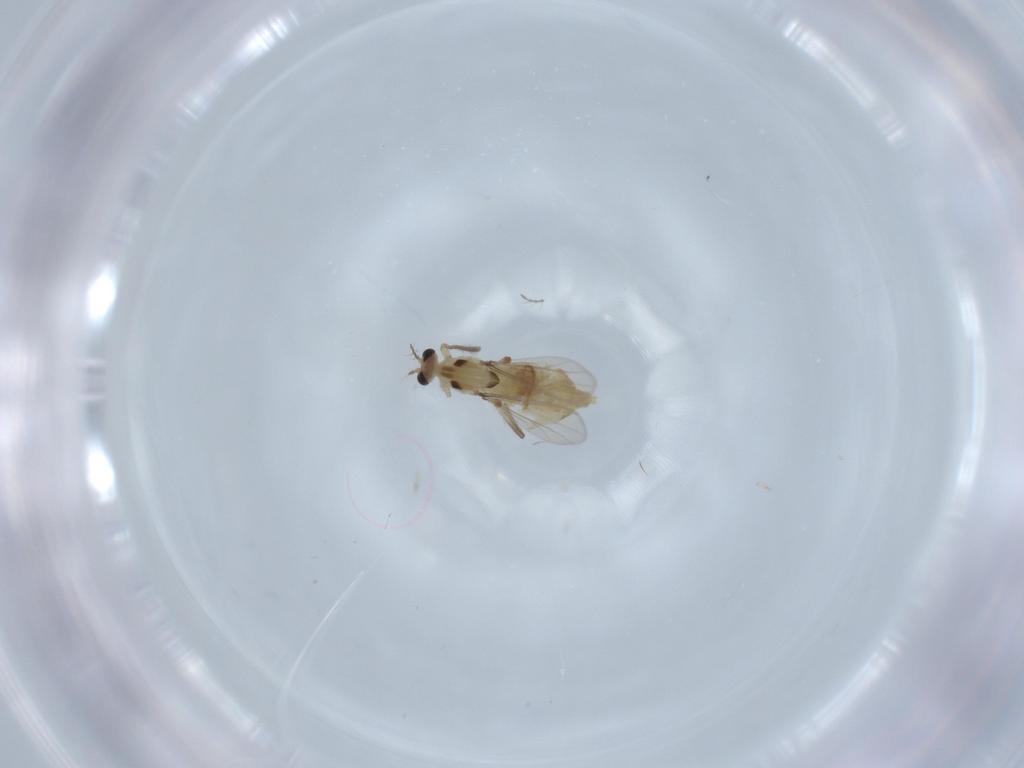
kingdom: Animalia
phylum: Arthropoda
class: Insecta
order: Diptera
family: Chironomidae
